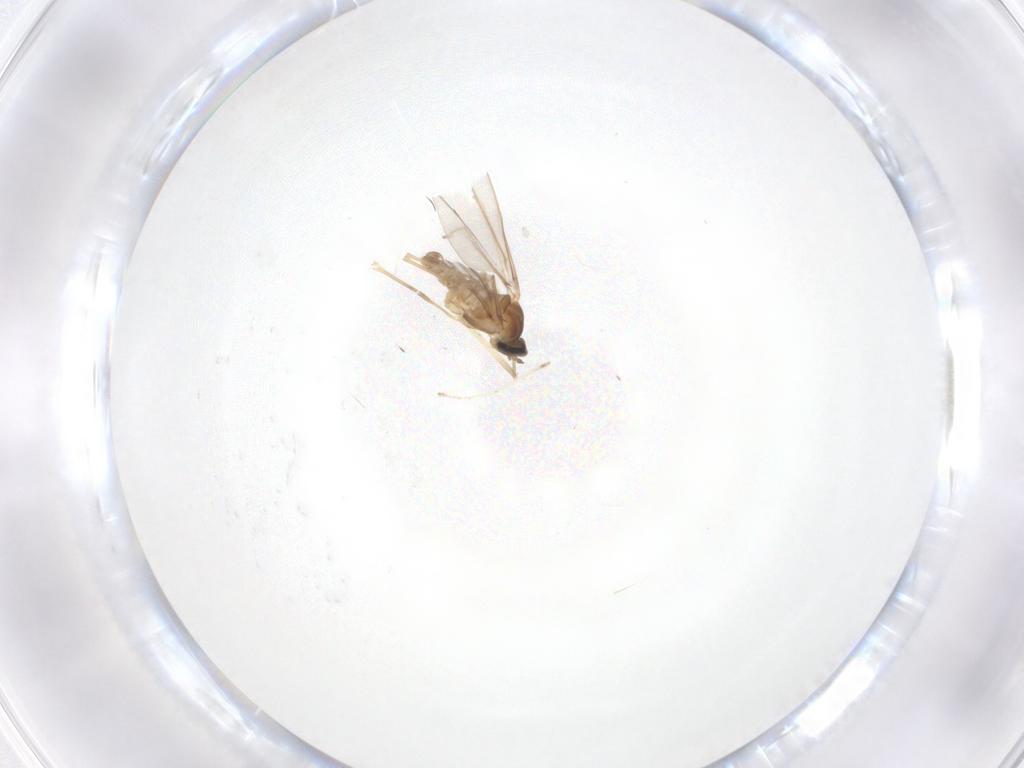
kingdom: Animalia
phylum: Arthropoda
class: Insecta
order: Diptera
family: Cecidomyiidae
